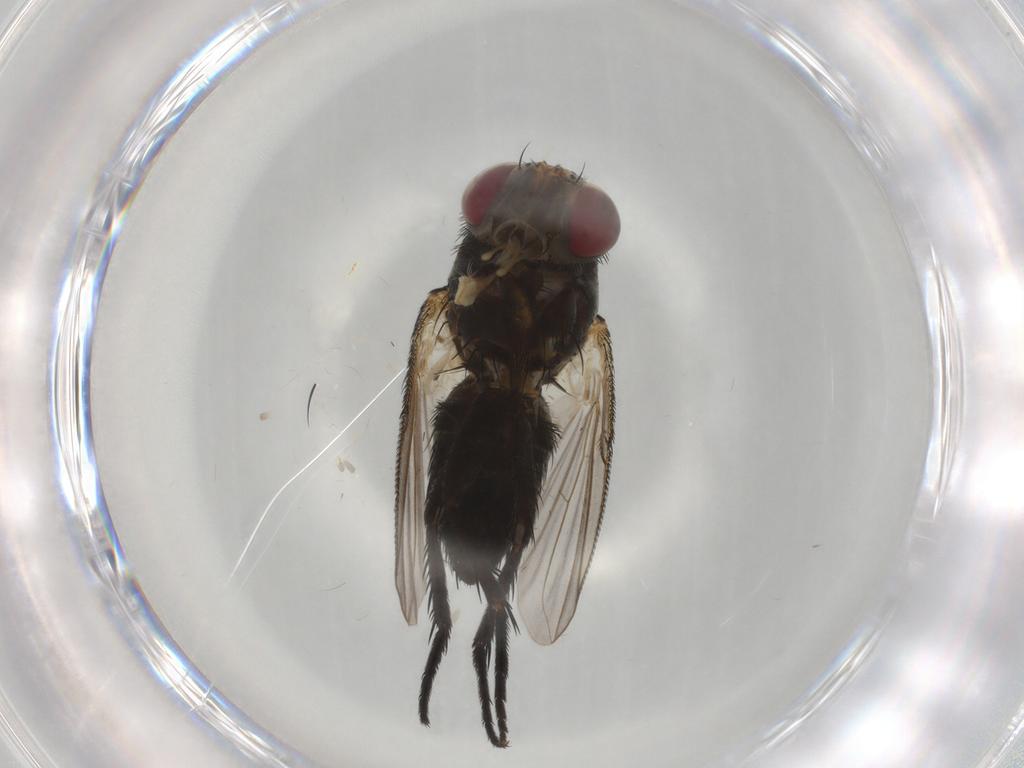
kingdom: Animalia
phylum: Arthropoda
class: Insecta
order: Diptera
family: Tachinidae
